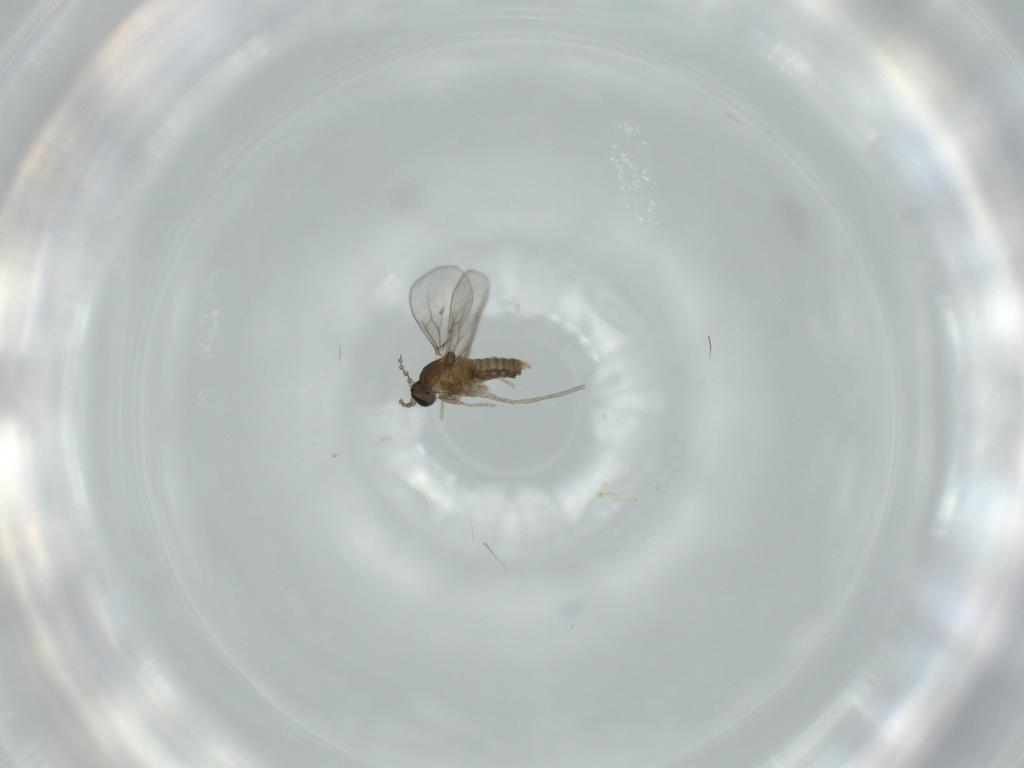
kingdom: Animalia
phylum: Arthropoda
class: Insecta
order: Diptera
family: Cecidomyiidae
